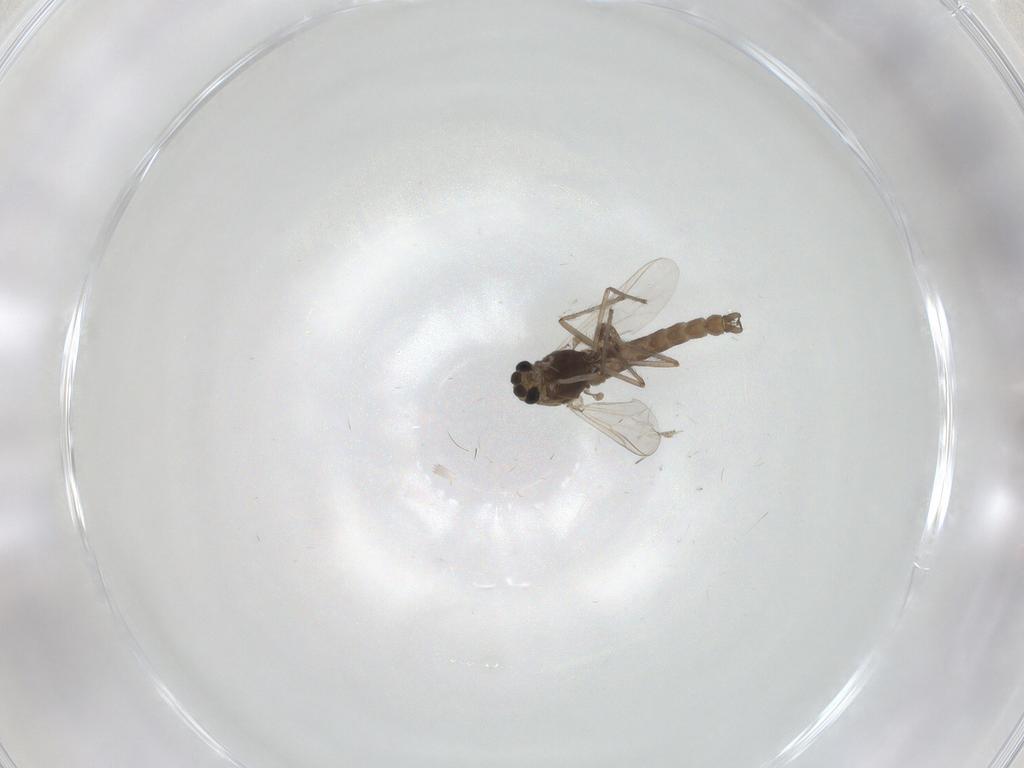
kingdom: Animalia
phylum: Arthropoda
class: Insecta
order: Diptera
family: Chironomidae
